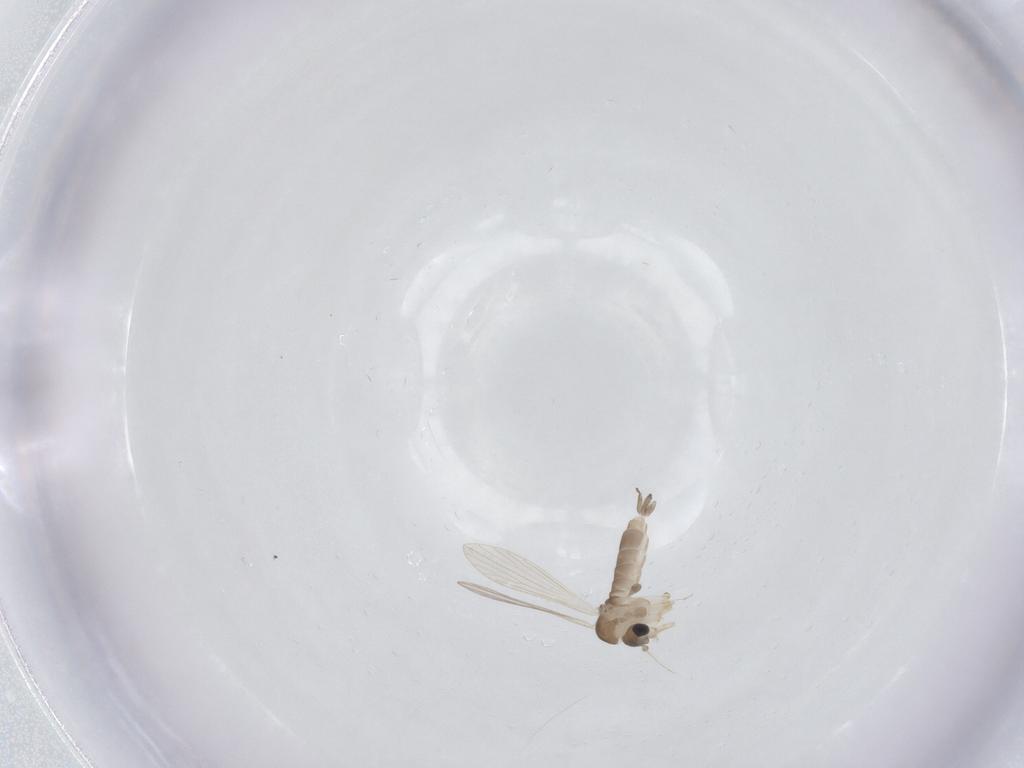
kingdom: Animalia
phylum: Arthropoda
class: Insecta
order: Diptera
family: Psychodidae
